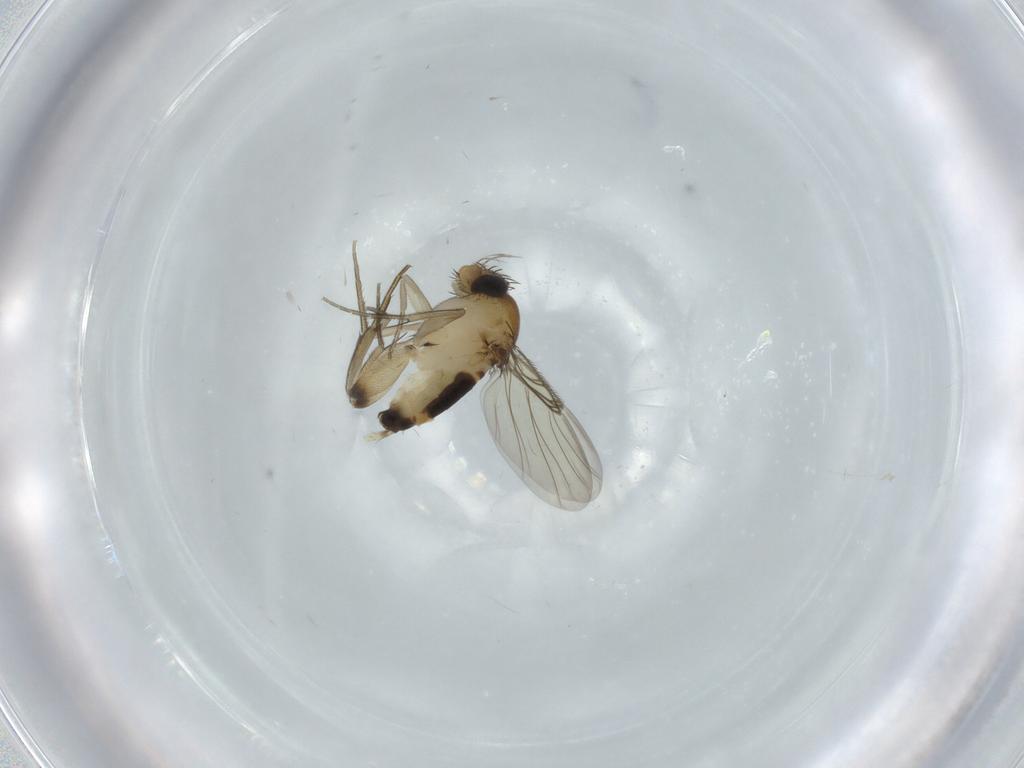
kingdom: Animalia
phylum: Arthropoda
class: Insecta
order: Diptera
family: Phoridae
